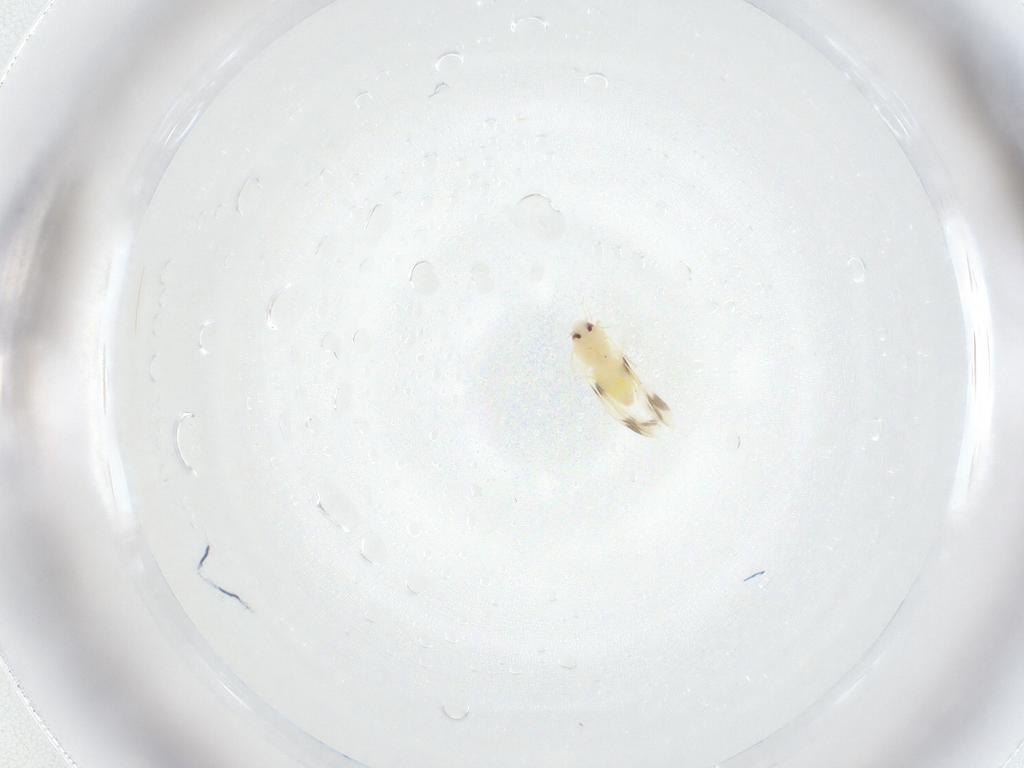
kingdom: Animalia
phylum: Arthropoda
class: Insecta
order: Hemiptera
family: Aleyrodidae
